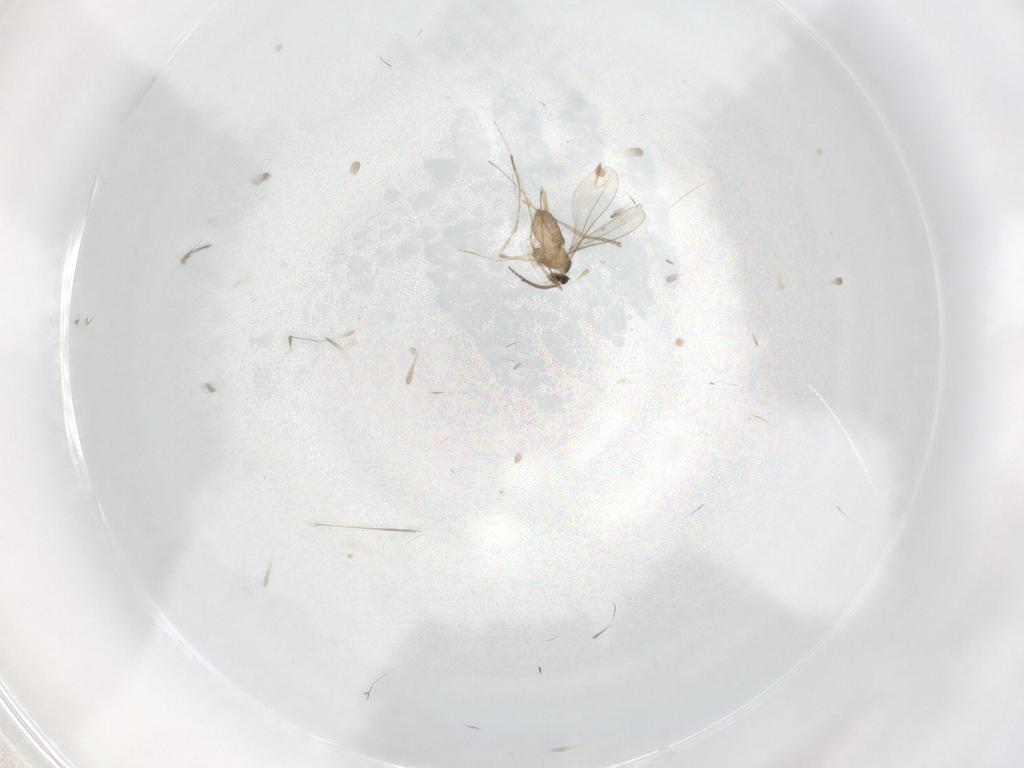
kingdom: Animalia
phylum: Arthropoda
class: Insecta
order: Diptera
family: Cecidomyiidae
